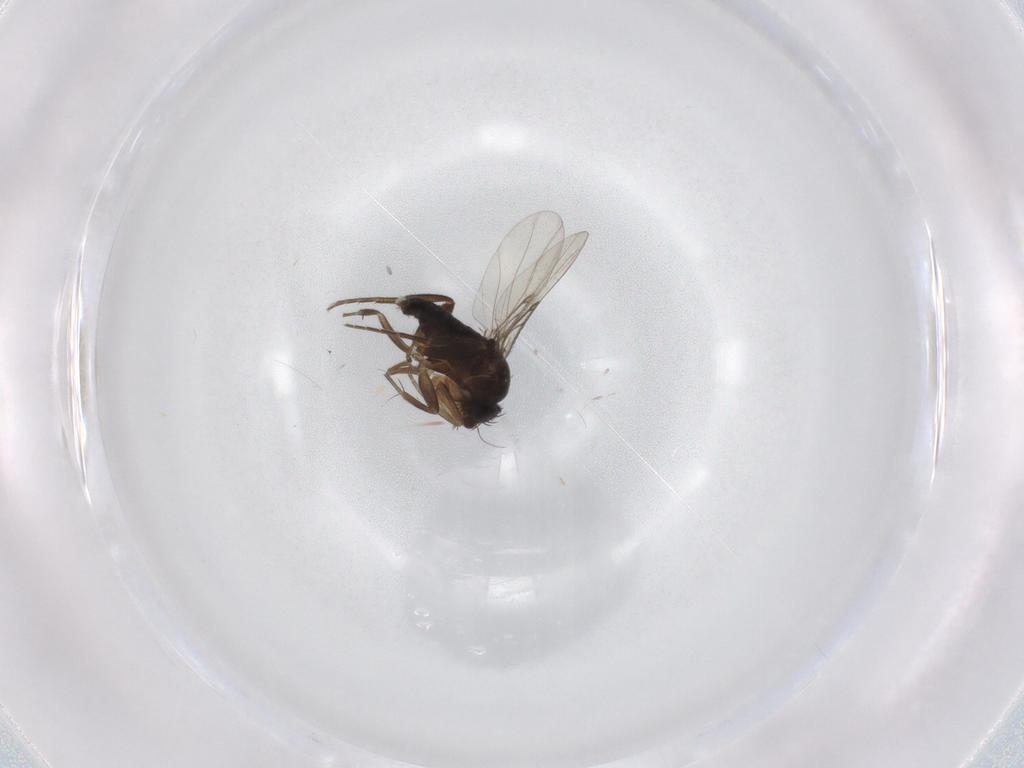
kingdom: Animalia
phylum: Arthropoda
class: Insecta
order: Diptera
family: Phoridae
